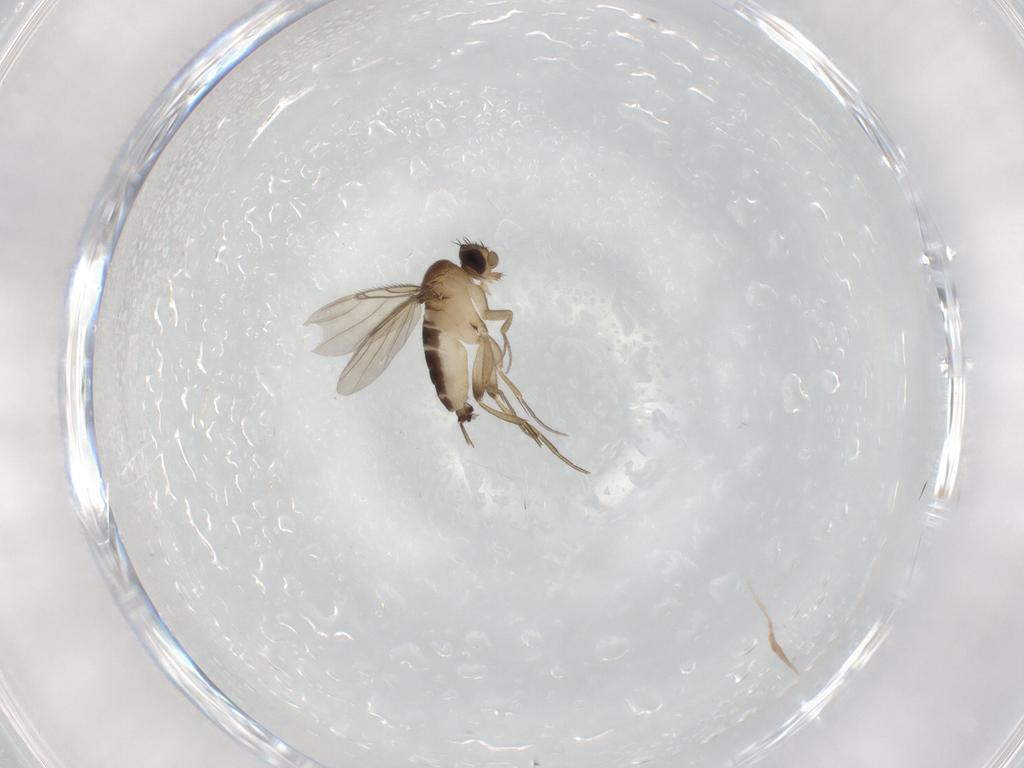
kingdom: Animalia
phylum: Arthropoda
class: Insecta
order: Diptera
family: Phoridae
